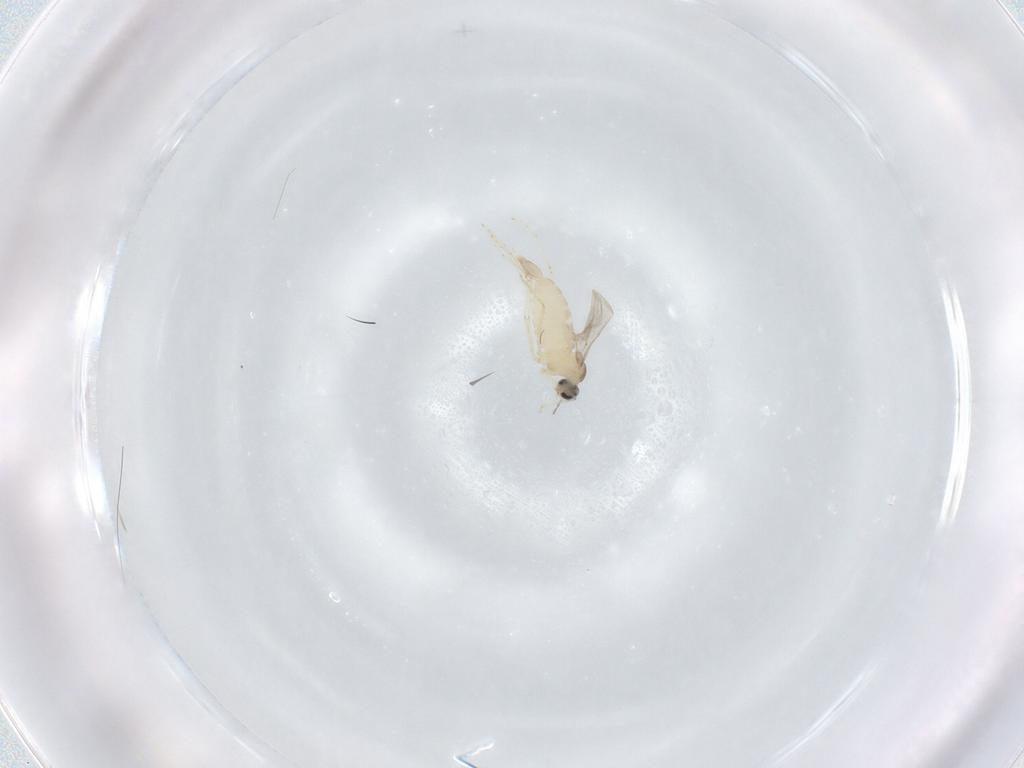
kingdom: Animalia
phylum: Arthropoda
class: Insecta
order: Diptera
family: Cecidomyiidae
